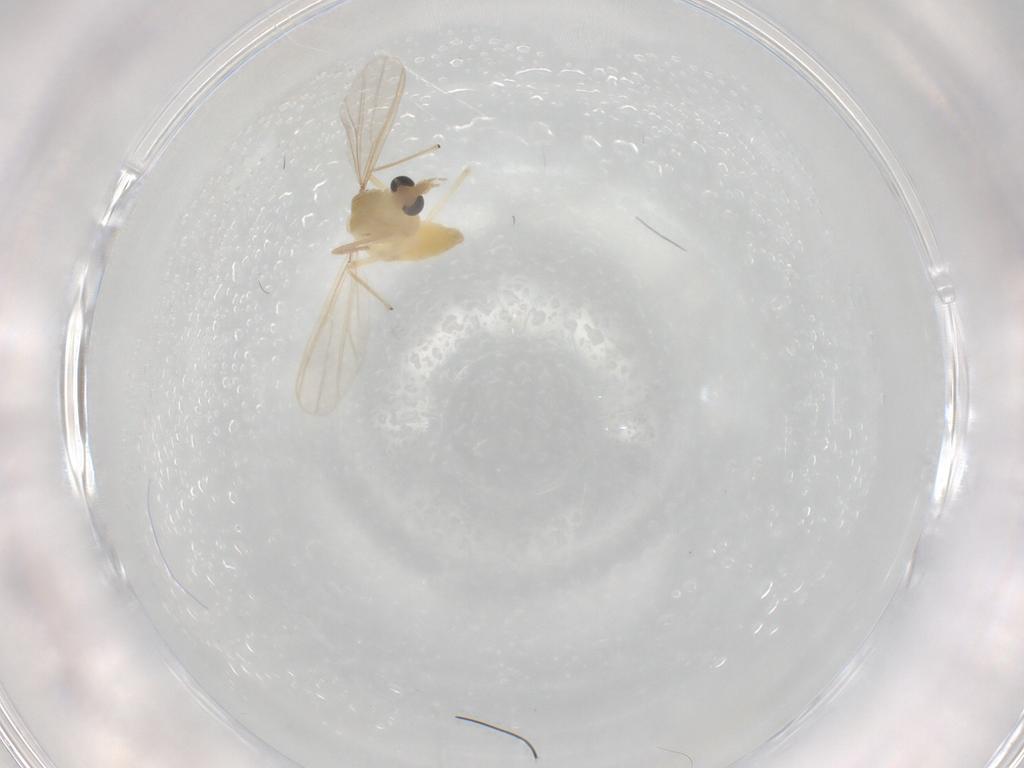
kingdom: Animalia
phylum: Arthropoda
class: Insecta
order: Diptera
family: Chironomidae
